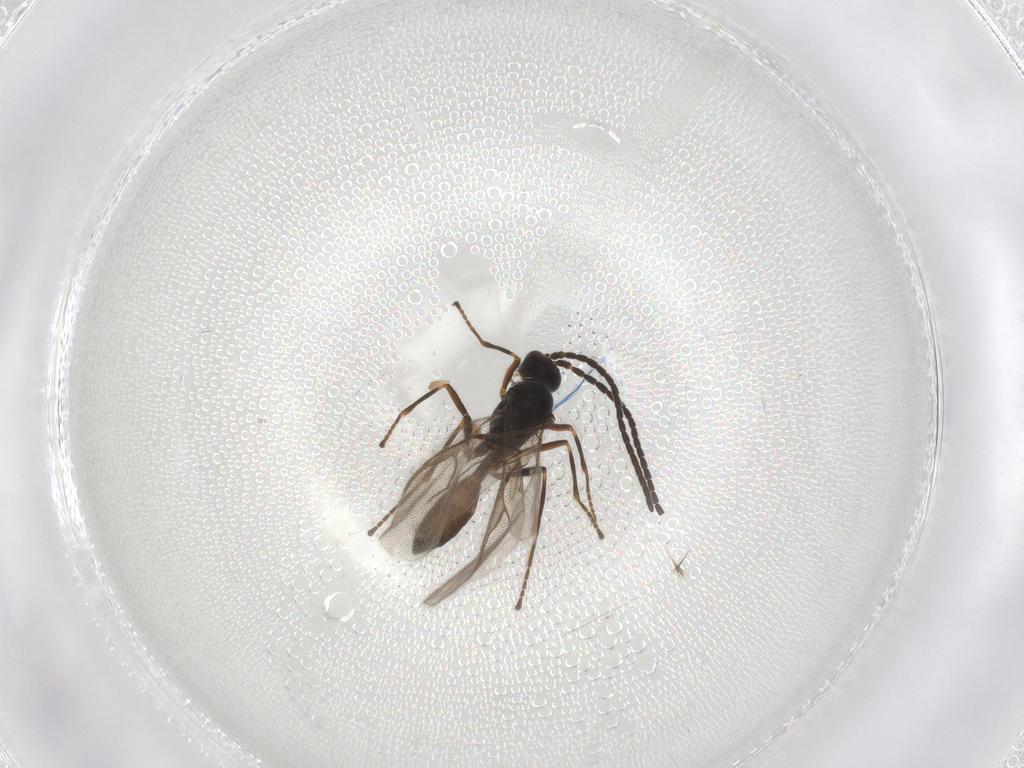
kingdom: Animalia
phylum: Arthropoda
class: Insecta
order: Hymenoptera
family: Braconidae
